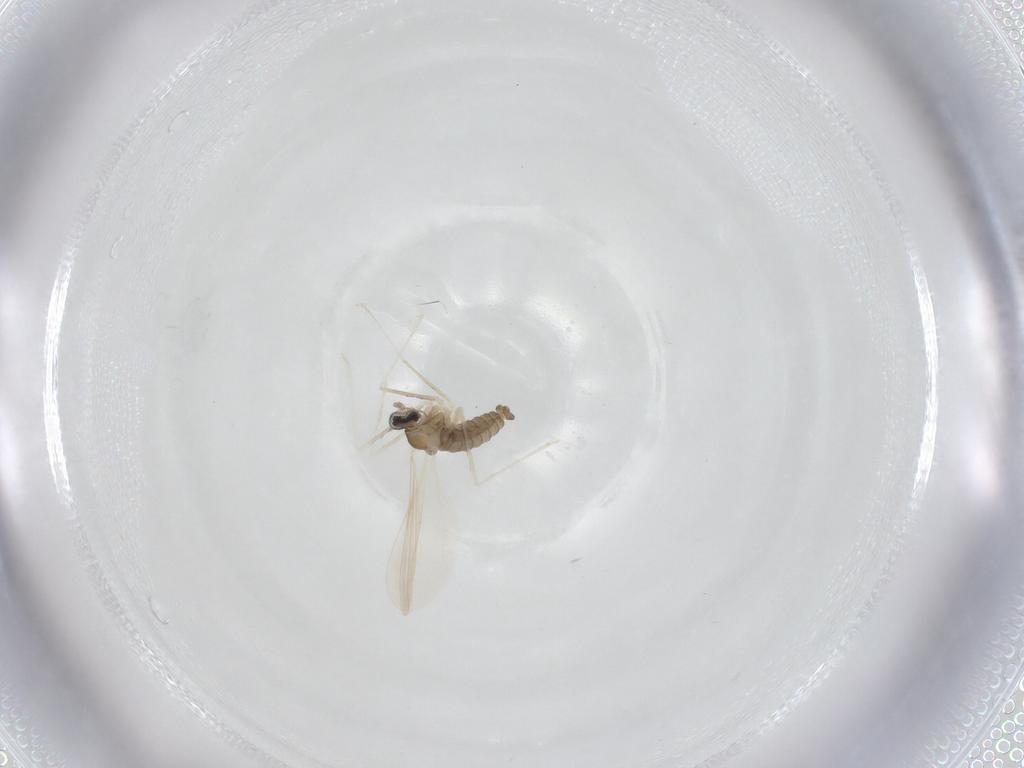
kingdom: Animalia
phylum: Arthropoda
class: Insecta
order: Diptera
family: Cecidomyiidae
